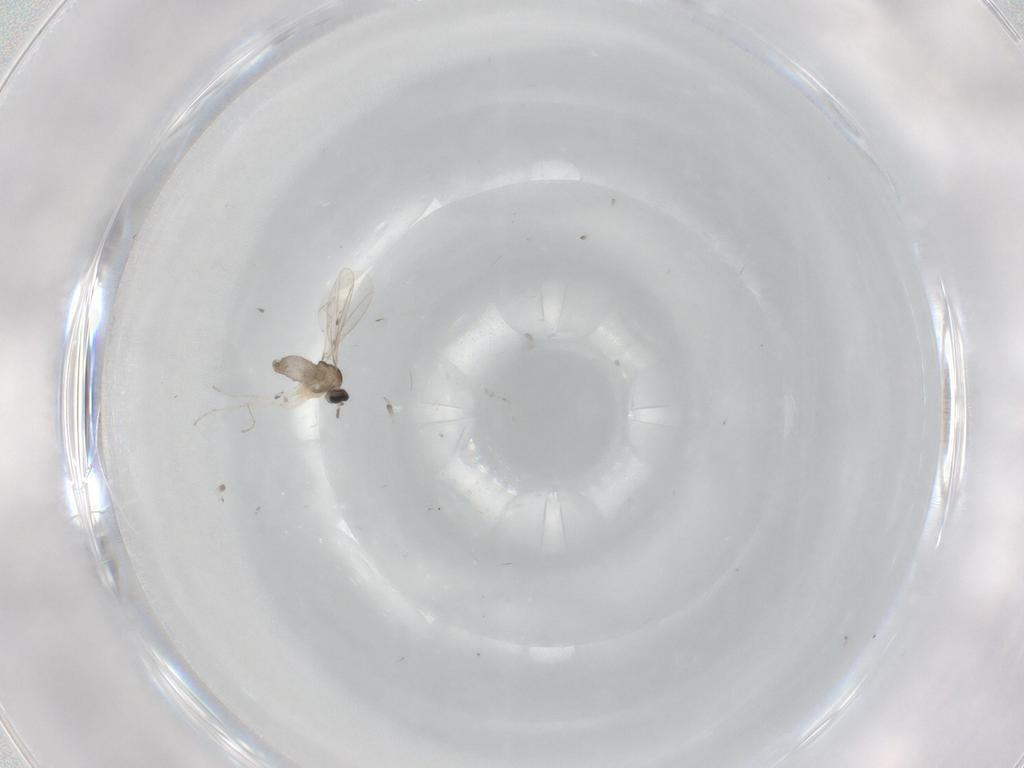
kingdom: Animalia
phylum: Arthropoda
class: Insecta
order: Diptera
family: Cecidomyiidae
